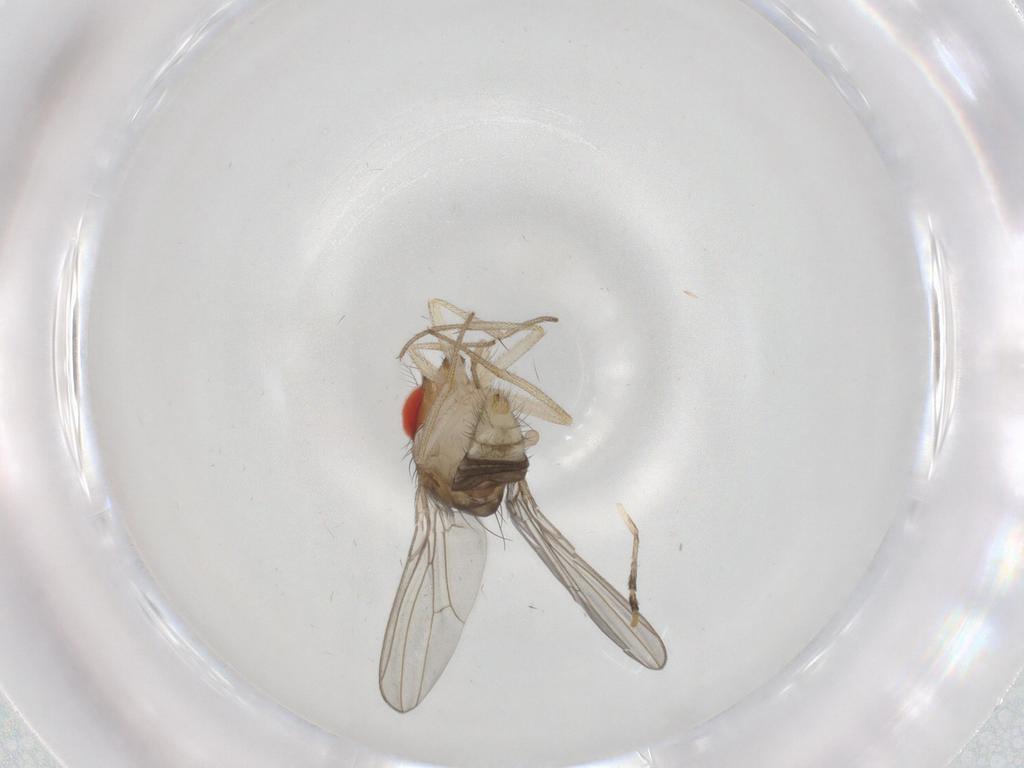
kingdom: Animalia
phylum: Arthropoda
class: Insecta
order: Diptera
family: Drosophilidae
